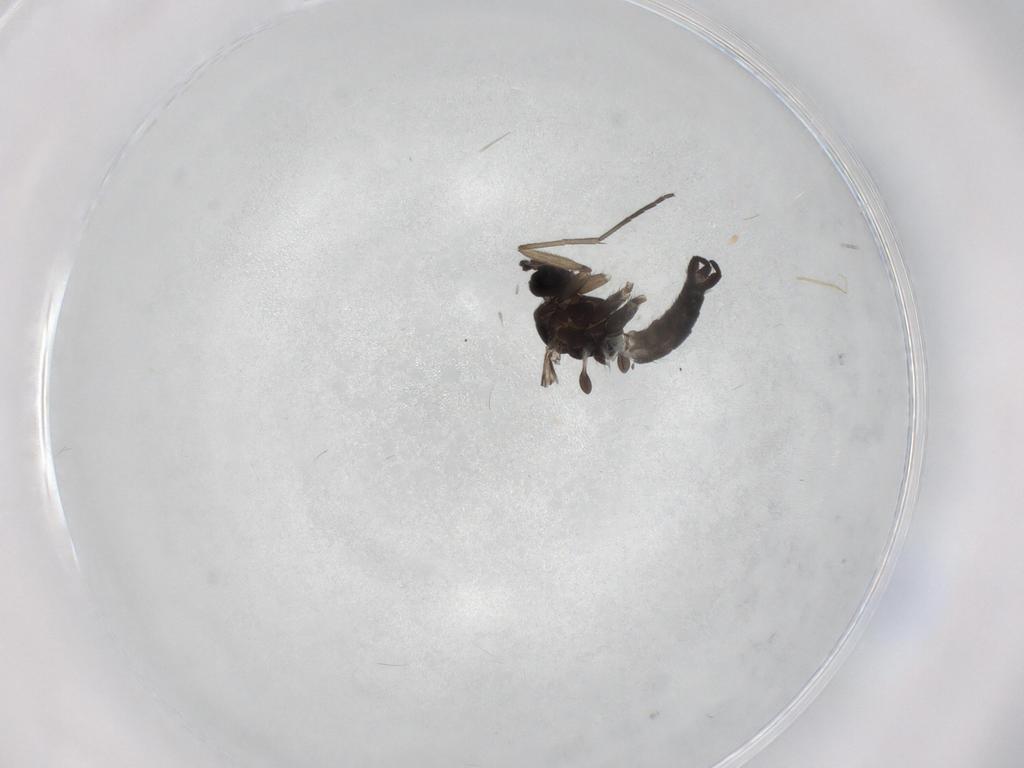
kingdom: Animalia
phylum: Arthropoda
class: Insecta
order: Diptera
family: Sciaridae
